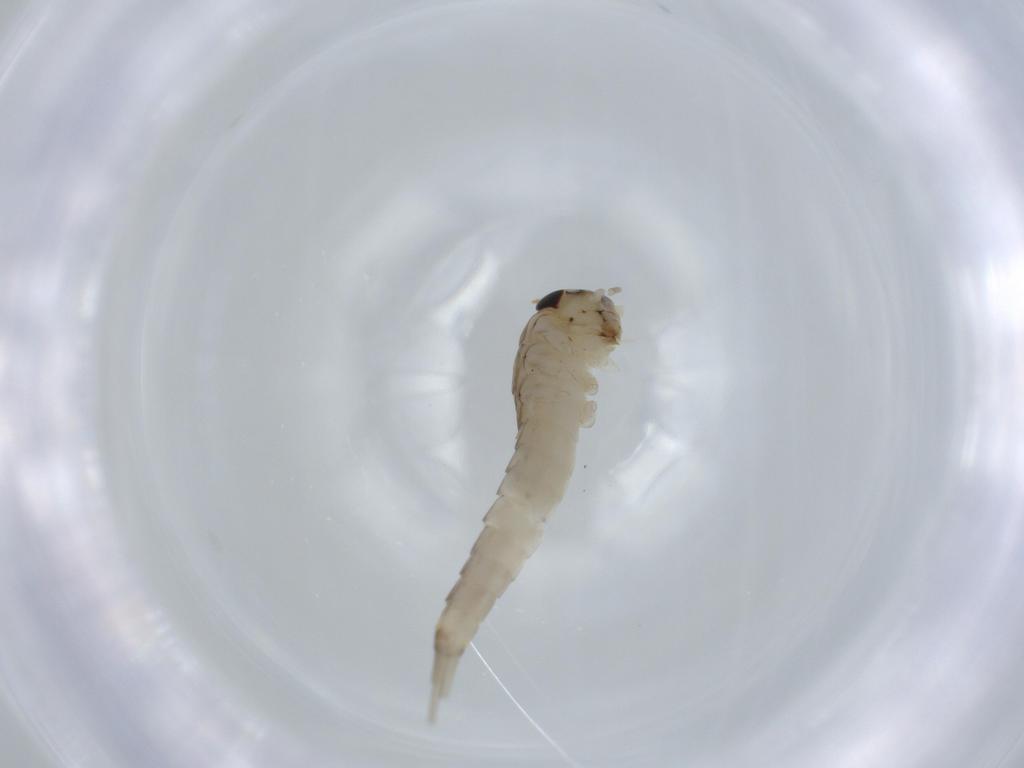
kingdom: Animalia
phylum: Arthropoda
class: Insecta
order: Ephemeroptera
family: Baetidae
